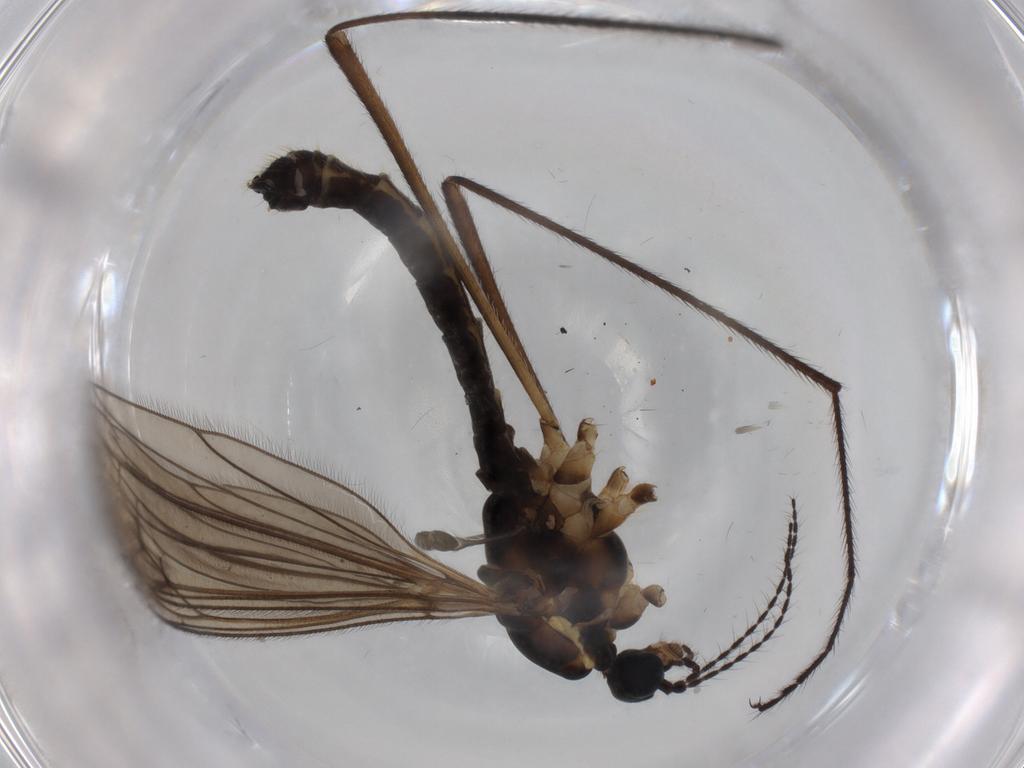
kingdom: Animalia
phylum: Arthropoda
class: Insecta
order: Diptera
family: Limoniidae
